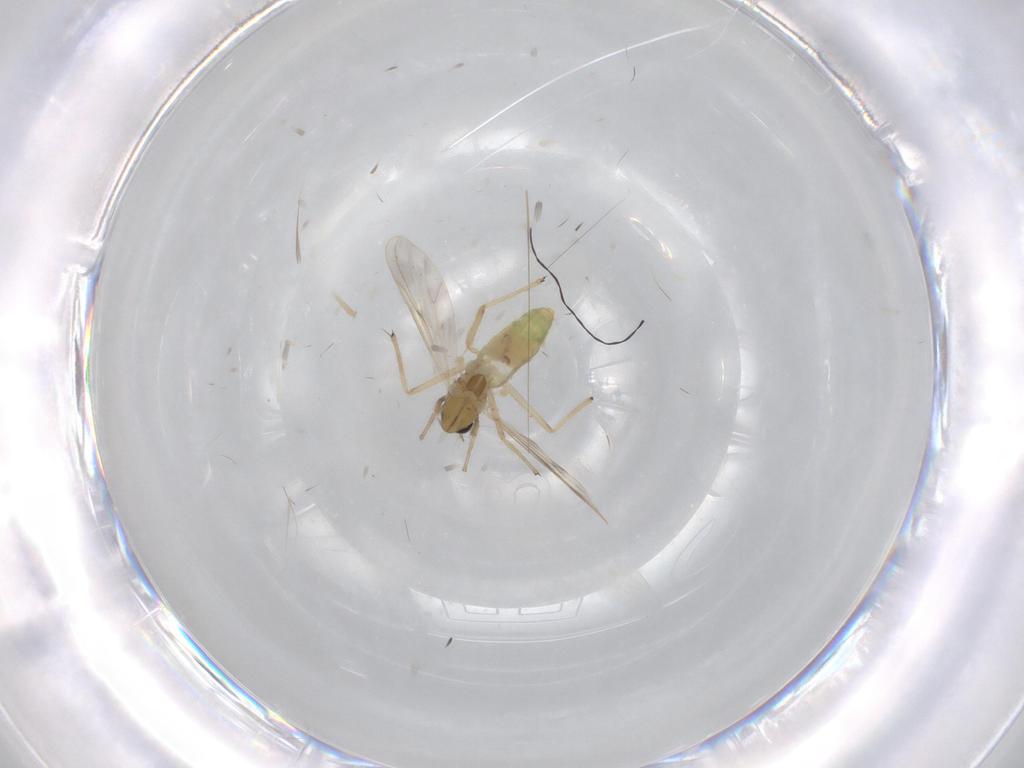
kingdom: Animalia
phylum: Arthropoda
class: Insecta
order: Diptera
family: Chironomidae
